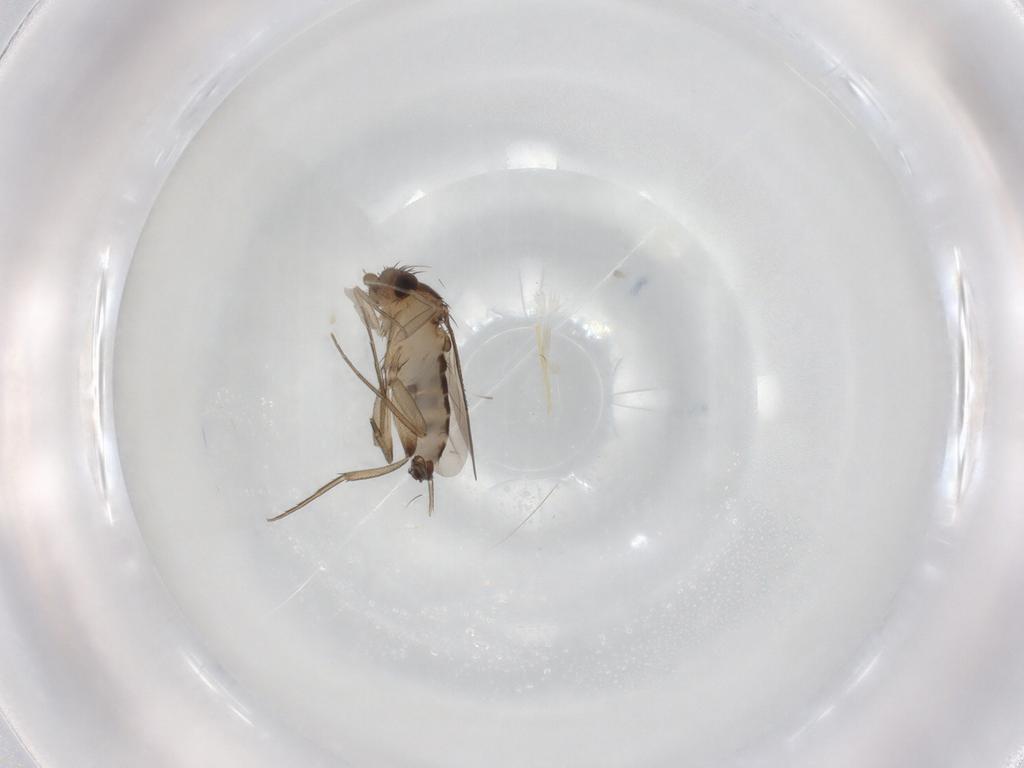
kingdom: Animalia
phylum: Arthropoda
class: Insecta
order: Diptera
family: Phoridae
